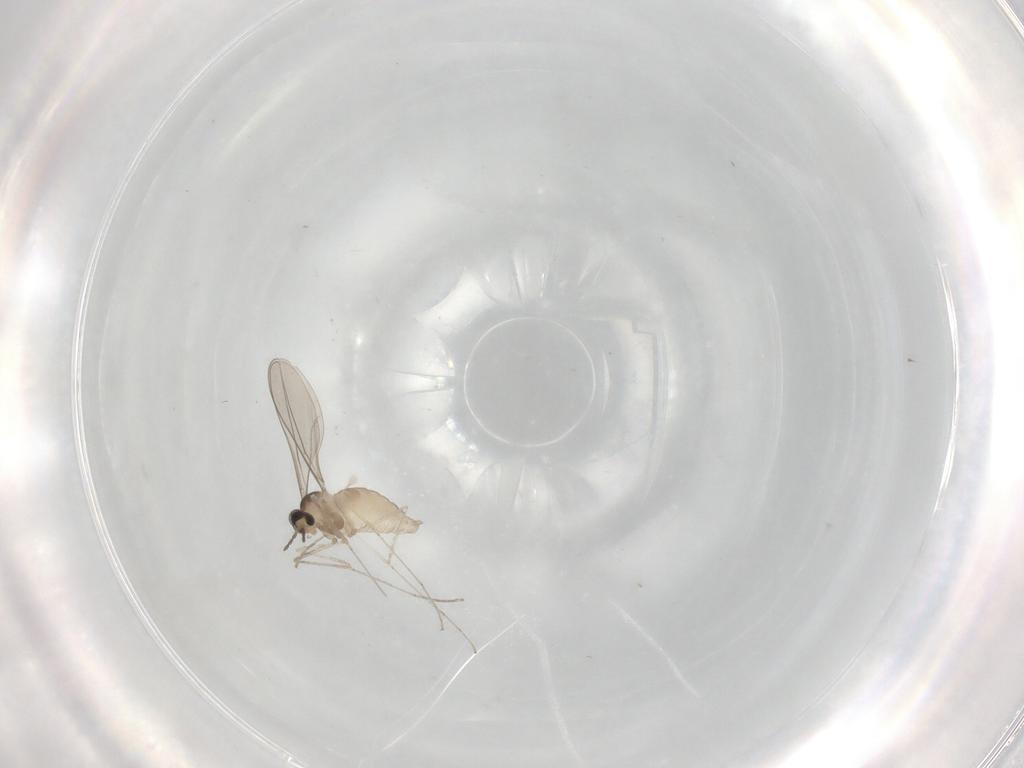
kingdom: Animalia
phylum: Arthropoda
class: Insecta
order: Diptera
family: Cecidomyiidae
